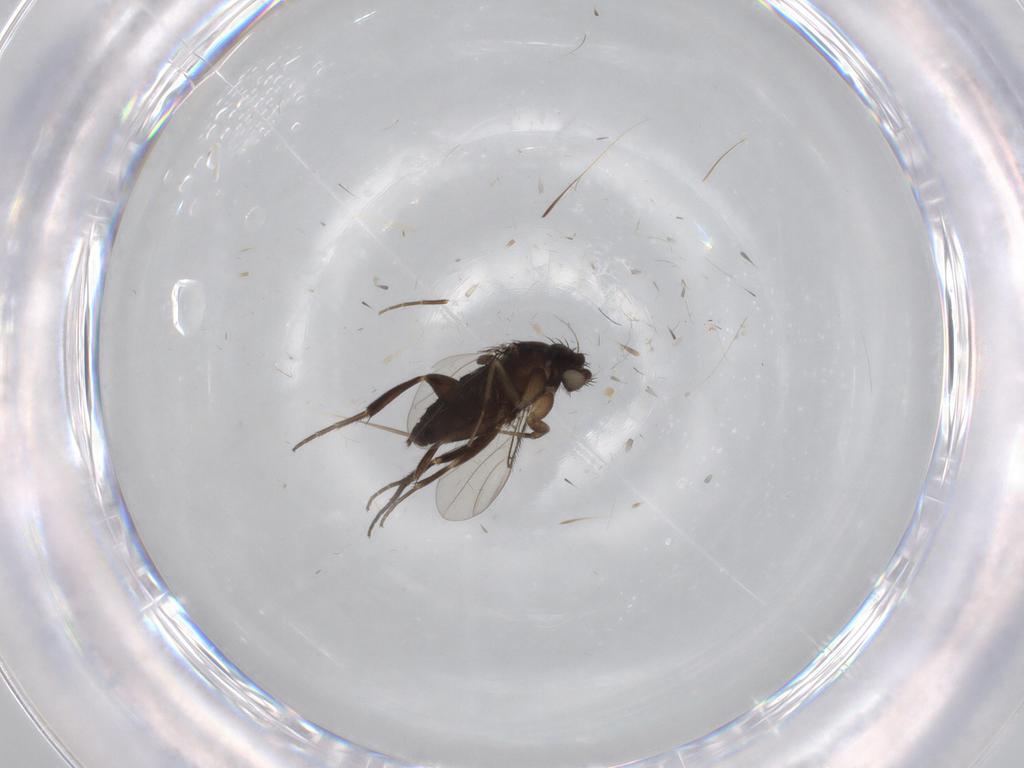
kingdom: Animalia
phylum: Arthropoda
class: Insecta
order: Diptera
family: Phoridae
